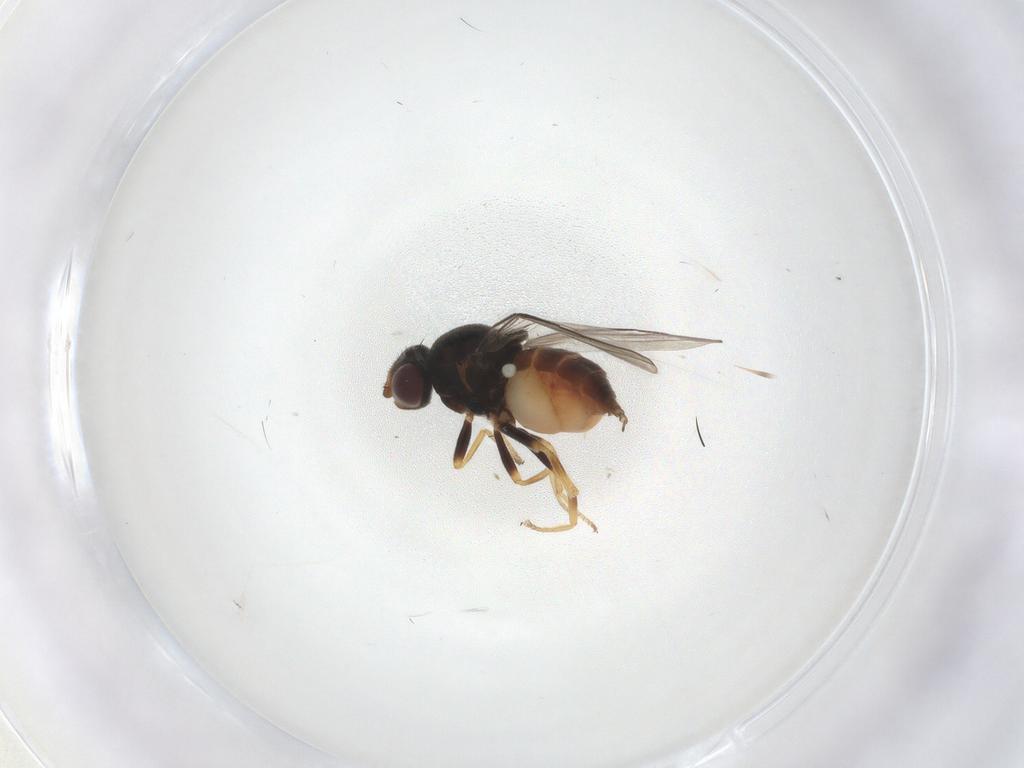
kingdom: Animalia
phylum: Arthropoda
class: Insecta
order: Diptera
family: Chloropidae
